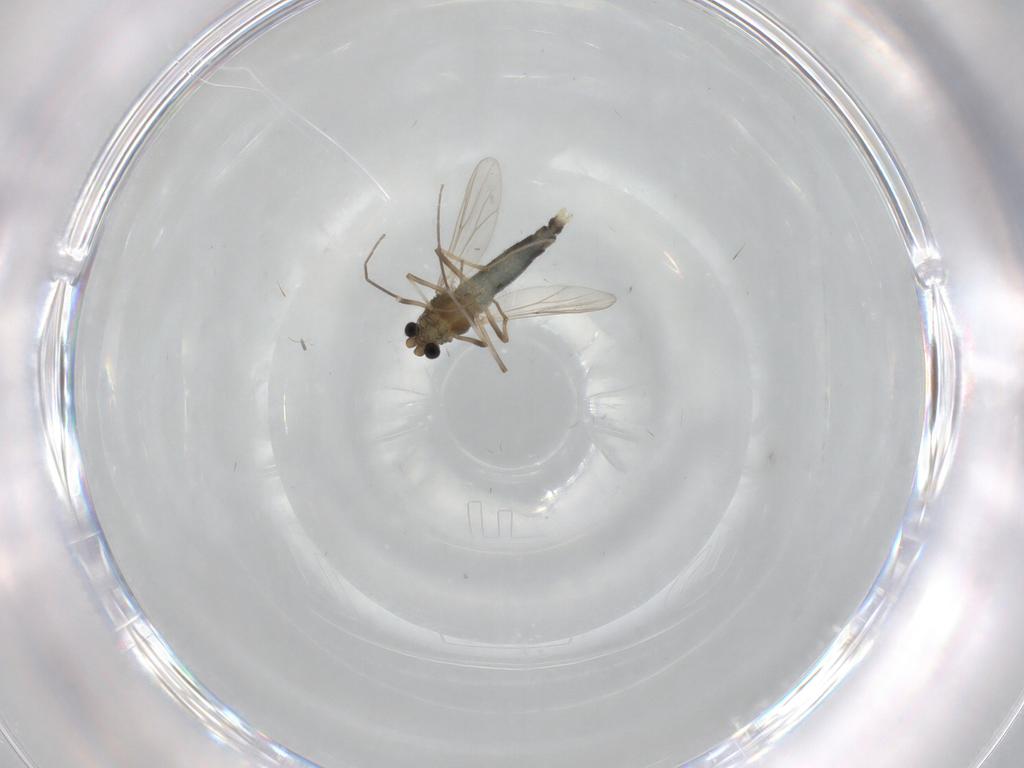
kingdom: Animalia
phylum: Arthropoda
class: Insecta
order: Diptera
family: Chironomidae
